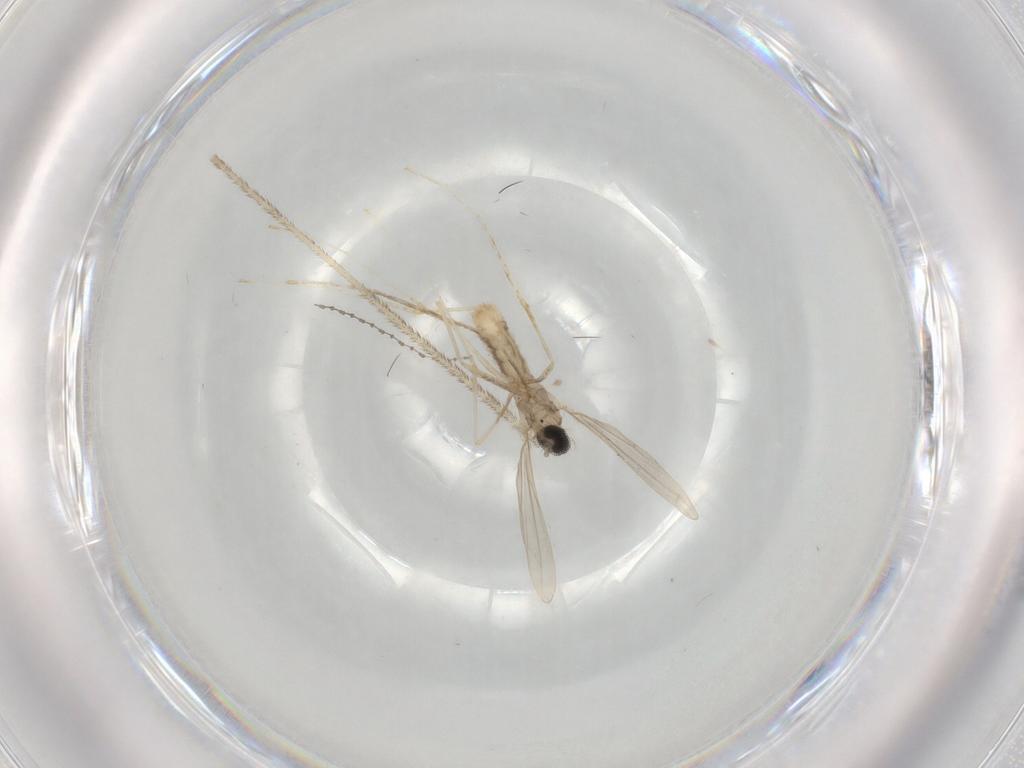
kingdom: Animalia
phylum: Arthropoda
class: Insecta
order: Diptera
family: Cecidomyiidae
